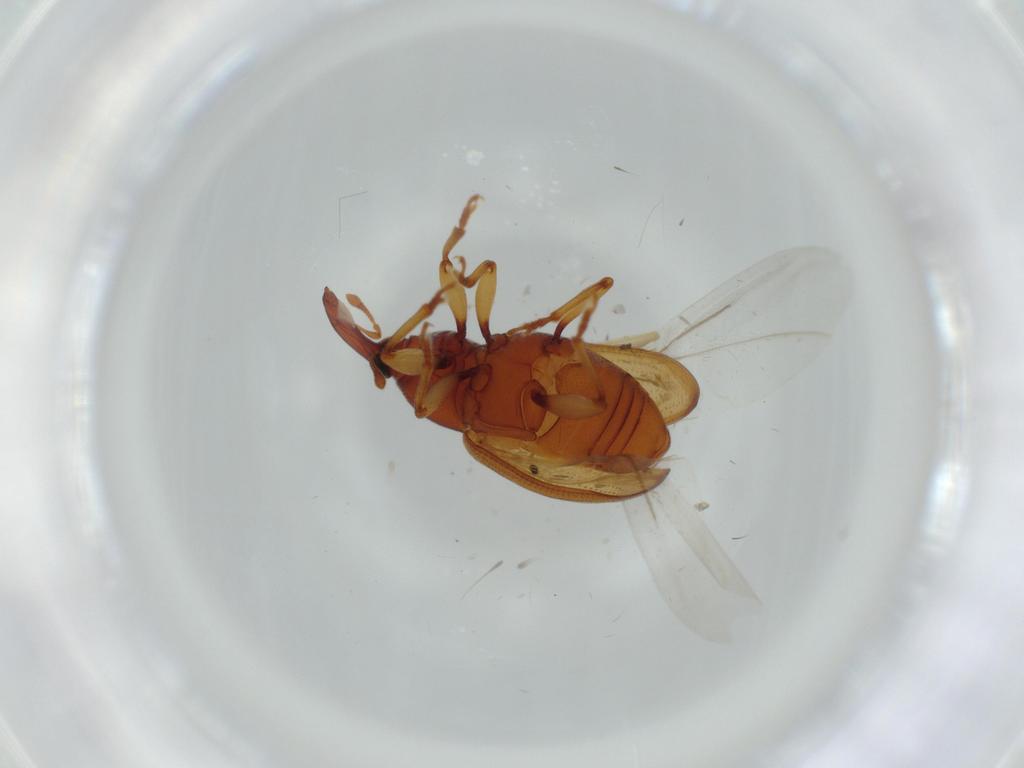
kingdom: Animalia
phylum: Arthropoda
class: Insecta
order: Coleoptera
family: Curculionidae
